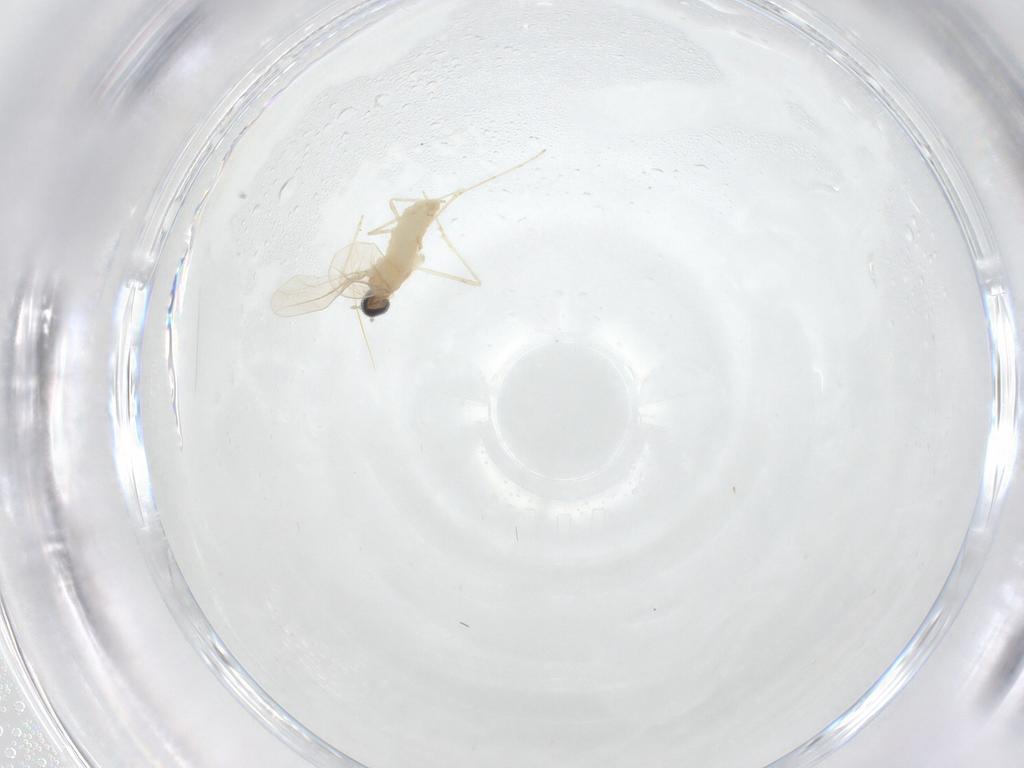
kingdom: Animalia
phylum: Arthropoda
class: Insecta
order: Diptera
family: Cecidomyiidae
